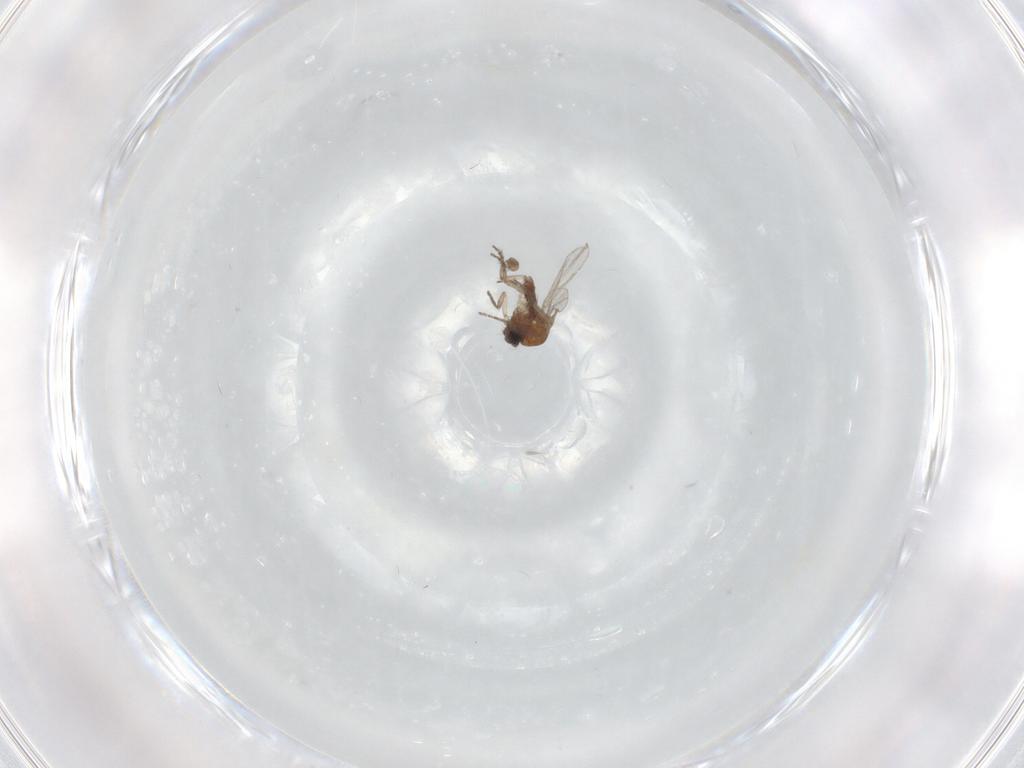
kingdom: Animalia
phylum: Arthropoda
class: Insecta
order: Diptera
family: Dolichopodidae
